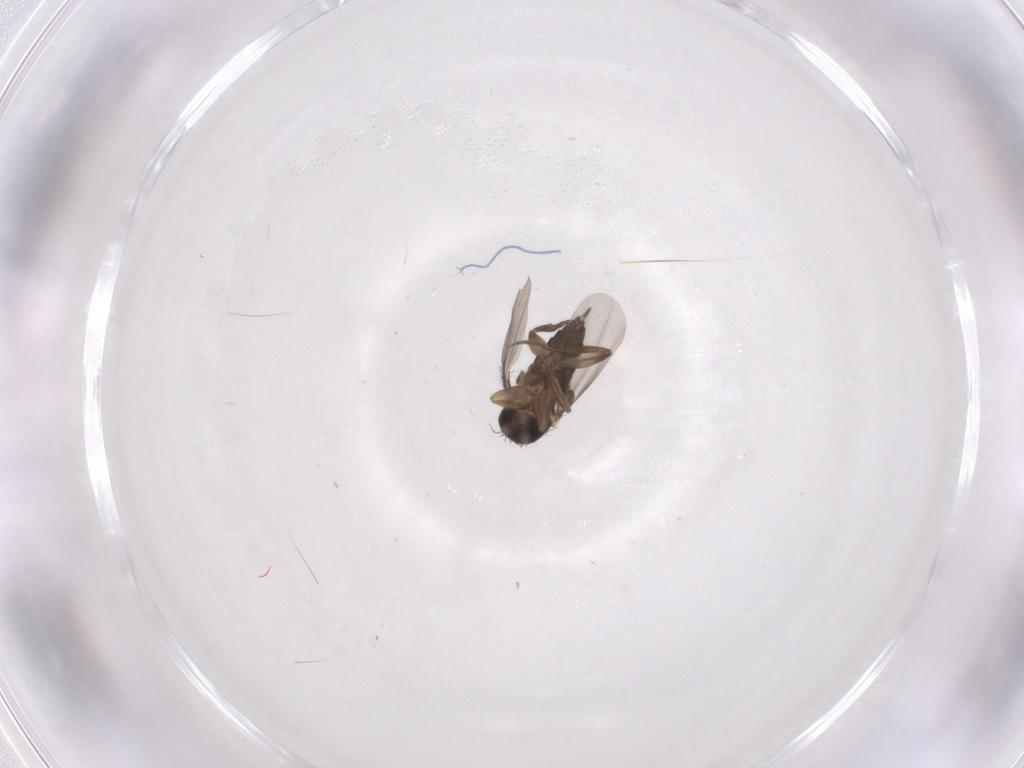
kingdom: Animalia
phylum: Arthropoda
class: Insecta
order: Diptera
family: Phoridae
